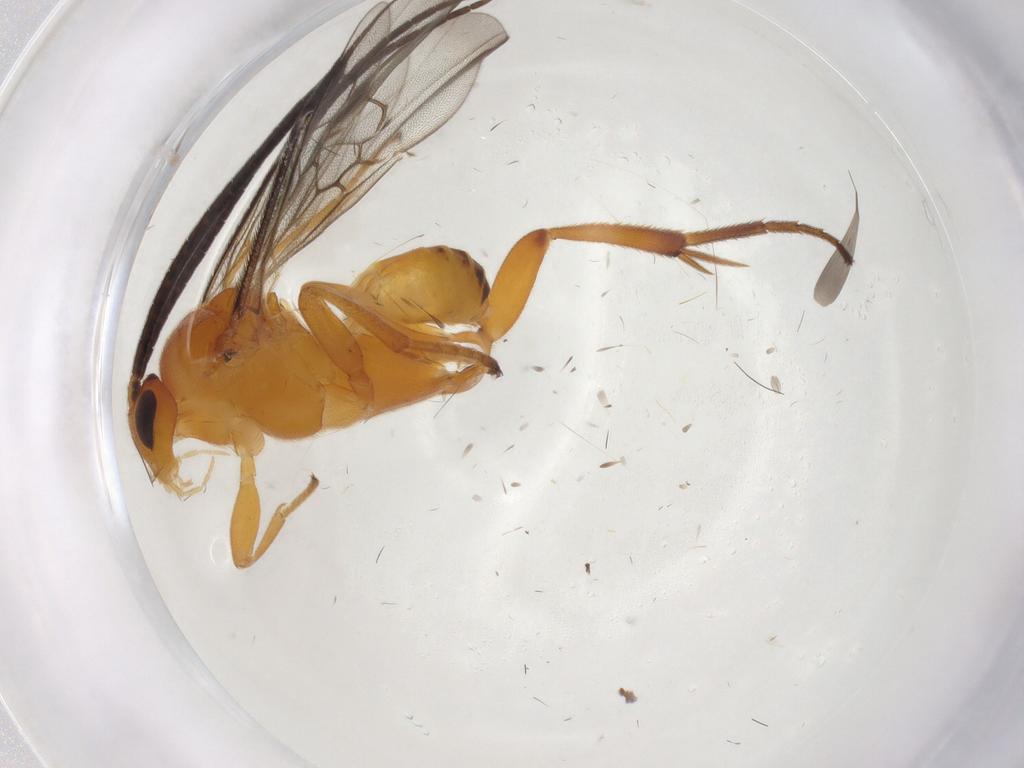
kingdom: Animalia
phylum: Arthropoda
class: Insecta
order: Hymenoptera
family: Braconidae
